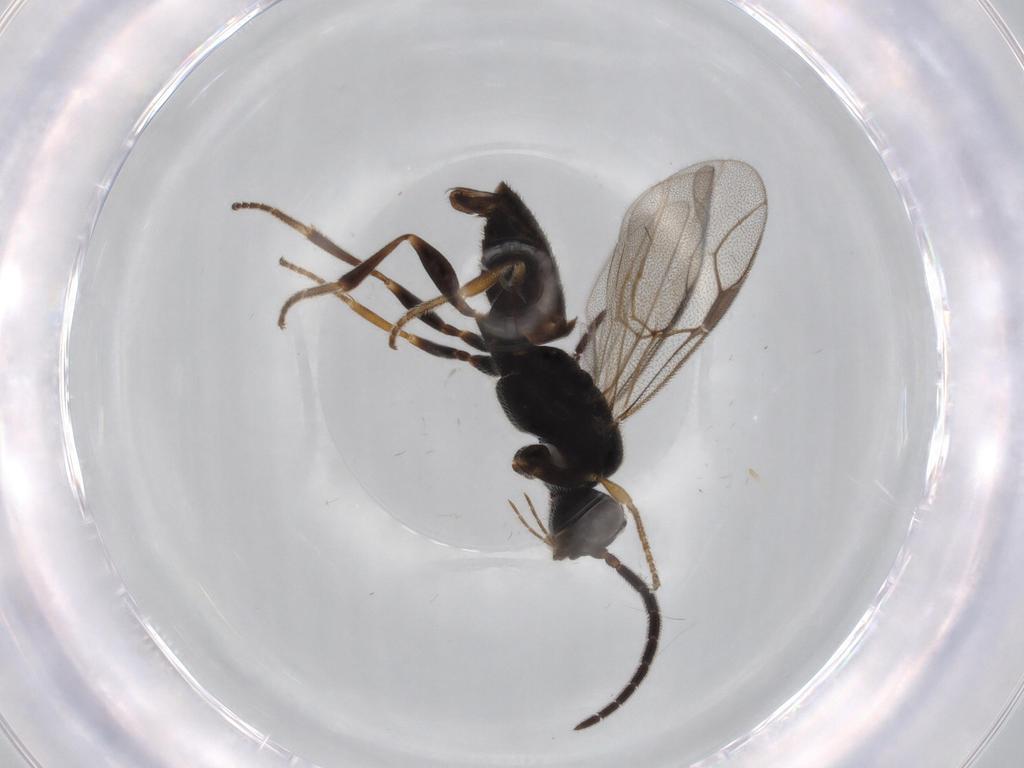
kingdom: Animalia
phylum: Arthropoda
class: Insecta
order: Hymenoptera
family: Dryinidae
